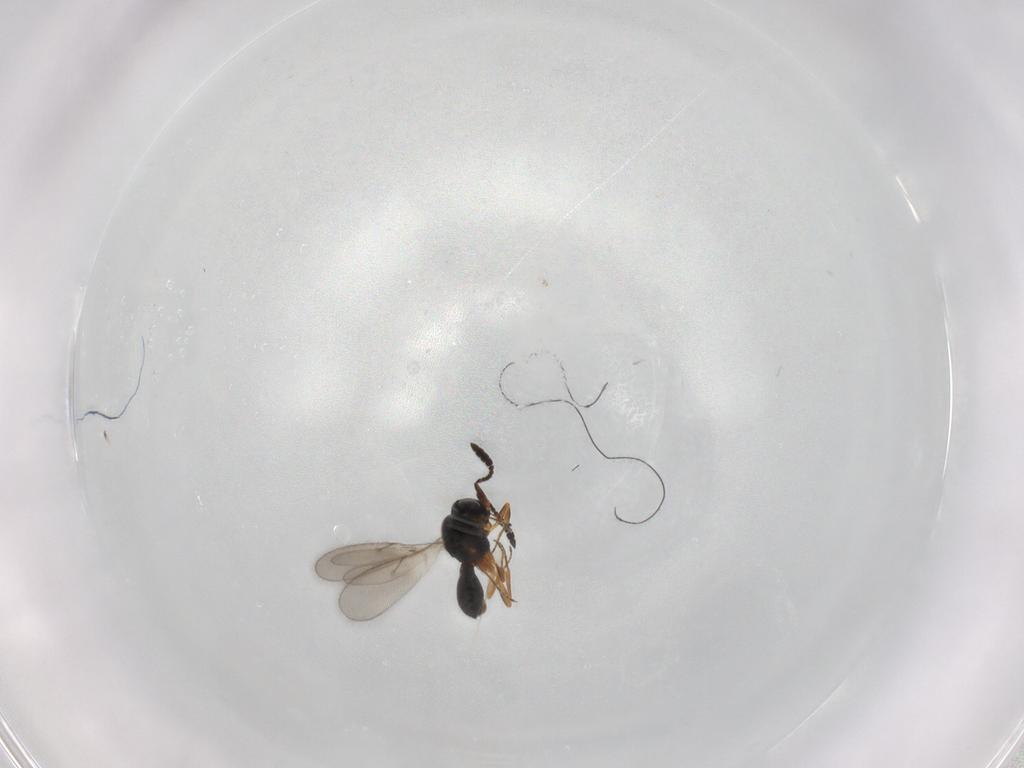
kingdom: Animalia
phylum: Arthropoda
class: Insecta
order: Hymenoptera
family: Scelionidae
